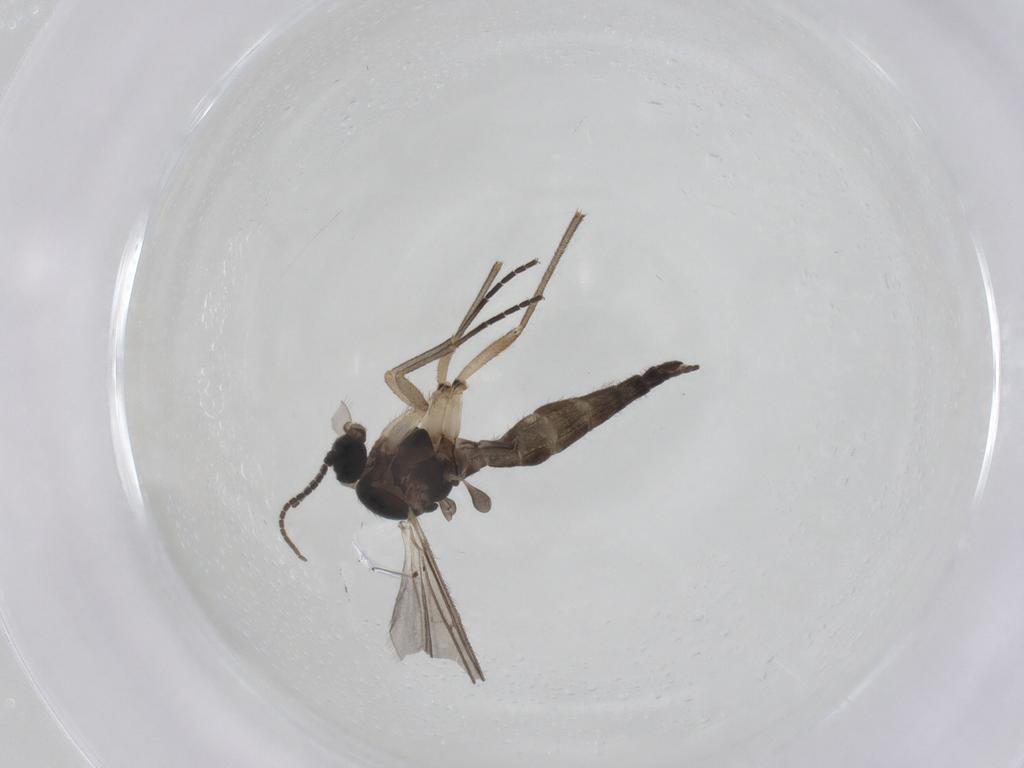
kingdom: Animalia
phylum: Arthropoda
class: Insecta
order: Diptera
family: Sciaridae
